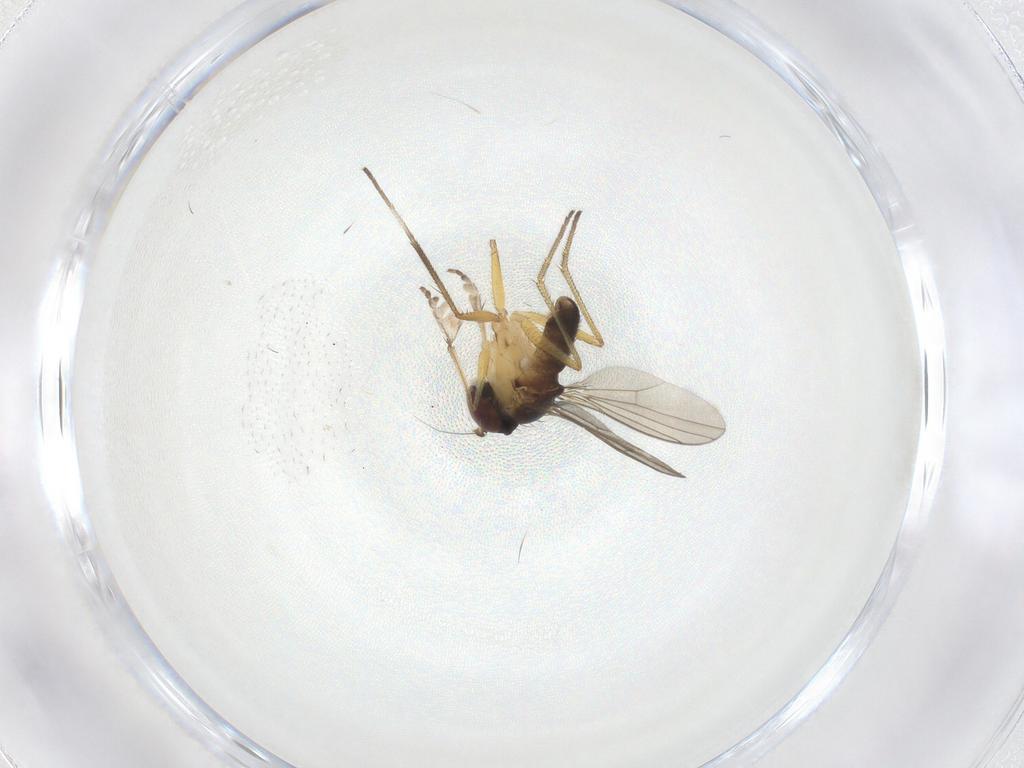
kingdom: Animalia
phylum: Arthropoda
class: Insecta
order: Diptera
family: Dolichopodidae
